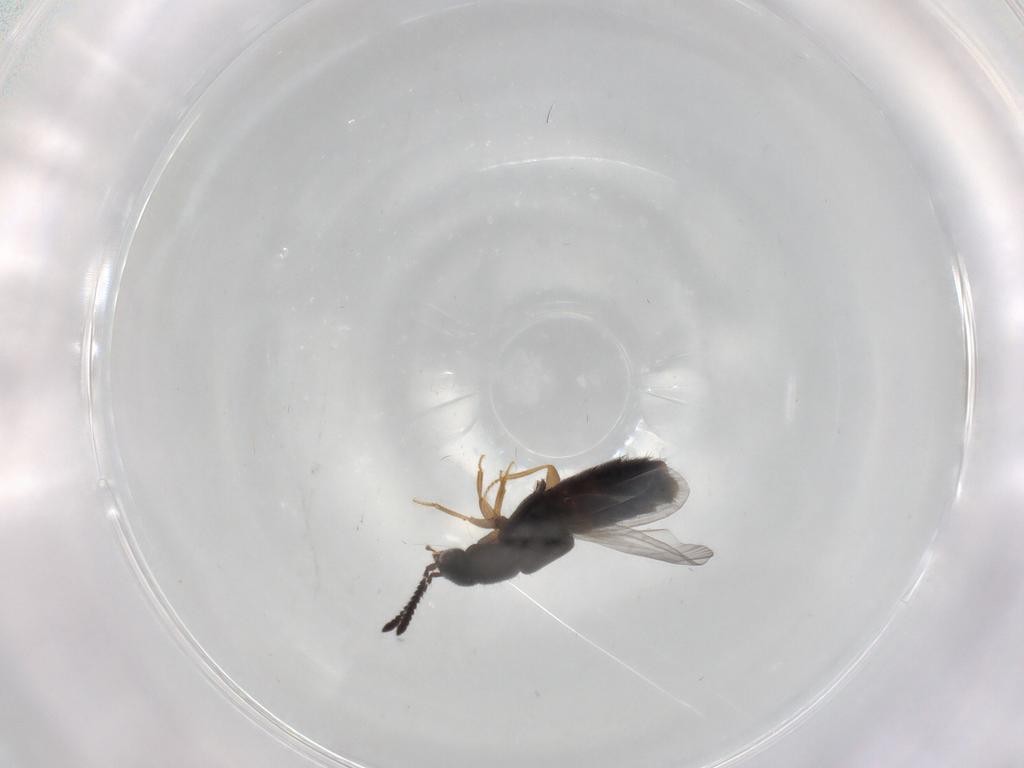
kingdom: Animalia
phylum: Arthropoda
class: Insecta
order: Coleoptera
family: Staphylinidae
